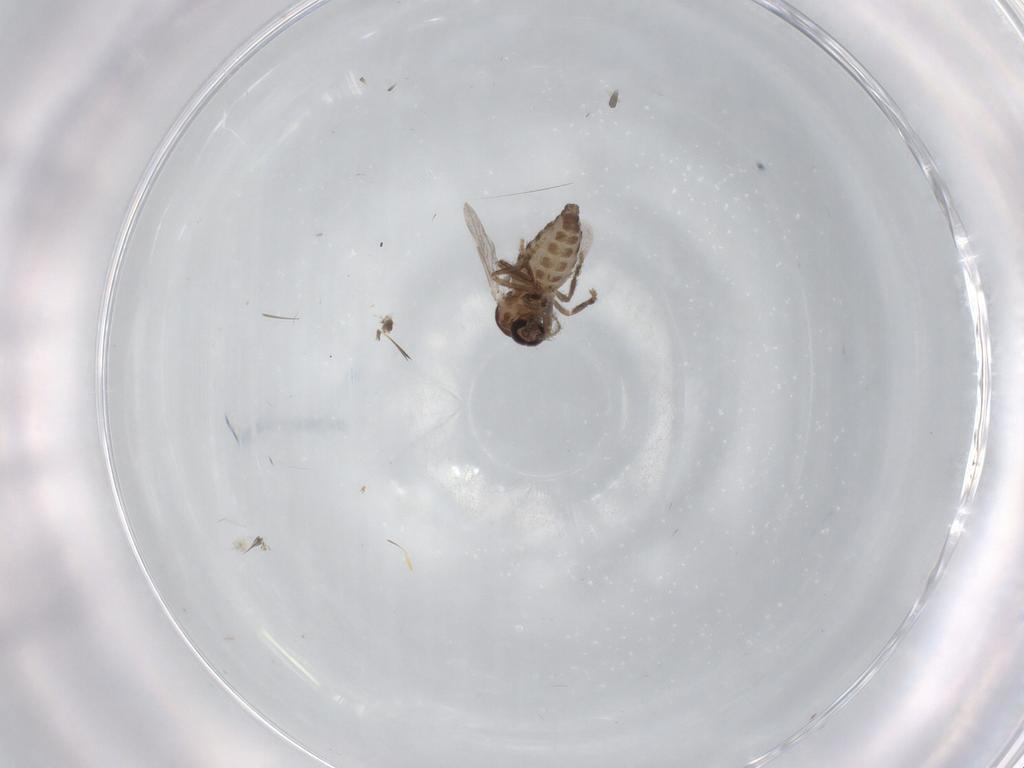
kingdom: Animalia
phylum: Arthropoda
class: Insecta
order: Diptera
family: Ceratopogonidae
